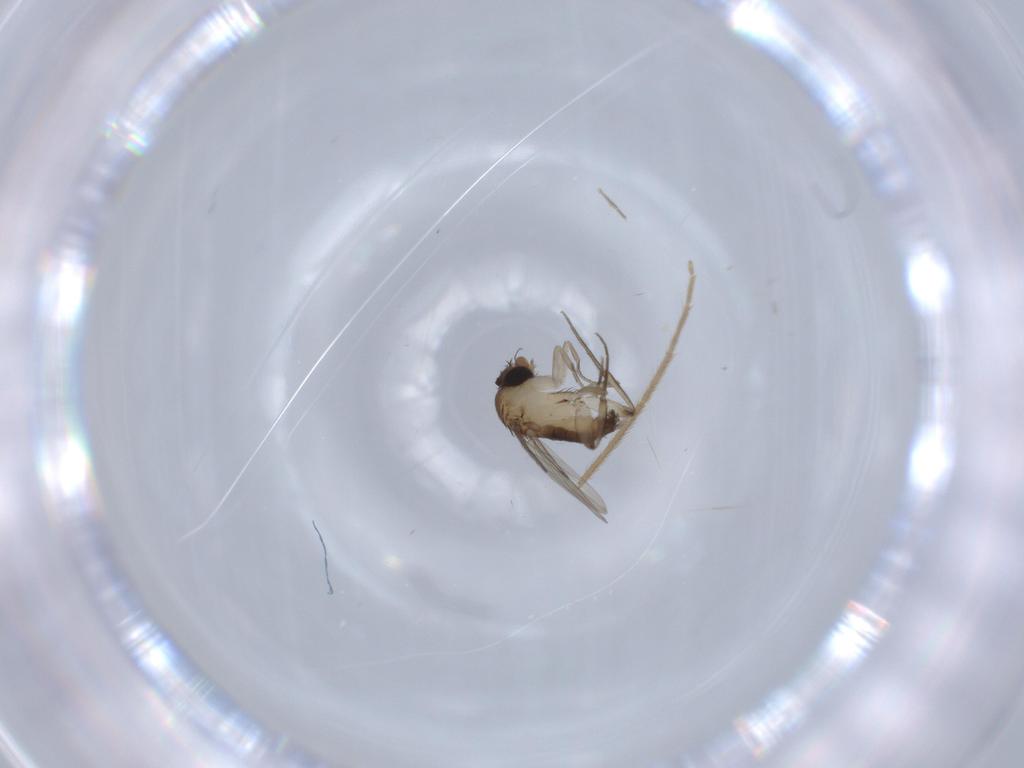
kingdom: Animalia
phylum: Arthropoda
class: Insecta
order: Diptera
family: Phoridae
